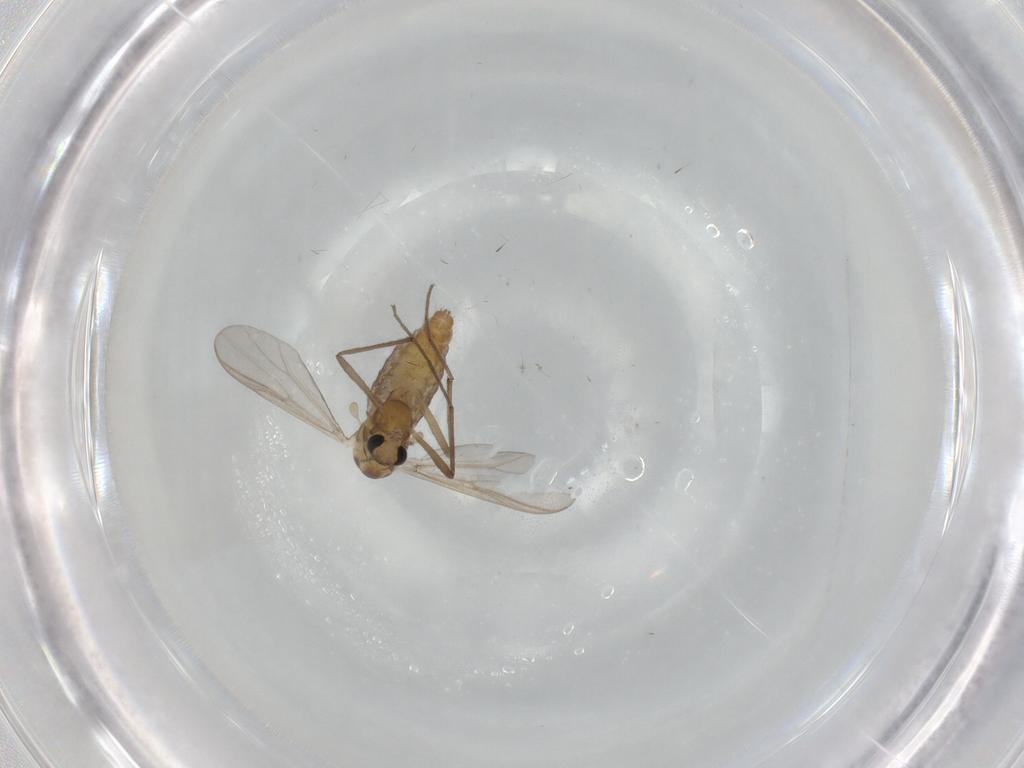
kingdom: Animalia
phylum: Arthropoda
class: Insecta
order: Diptera
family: Chironomidae
